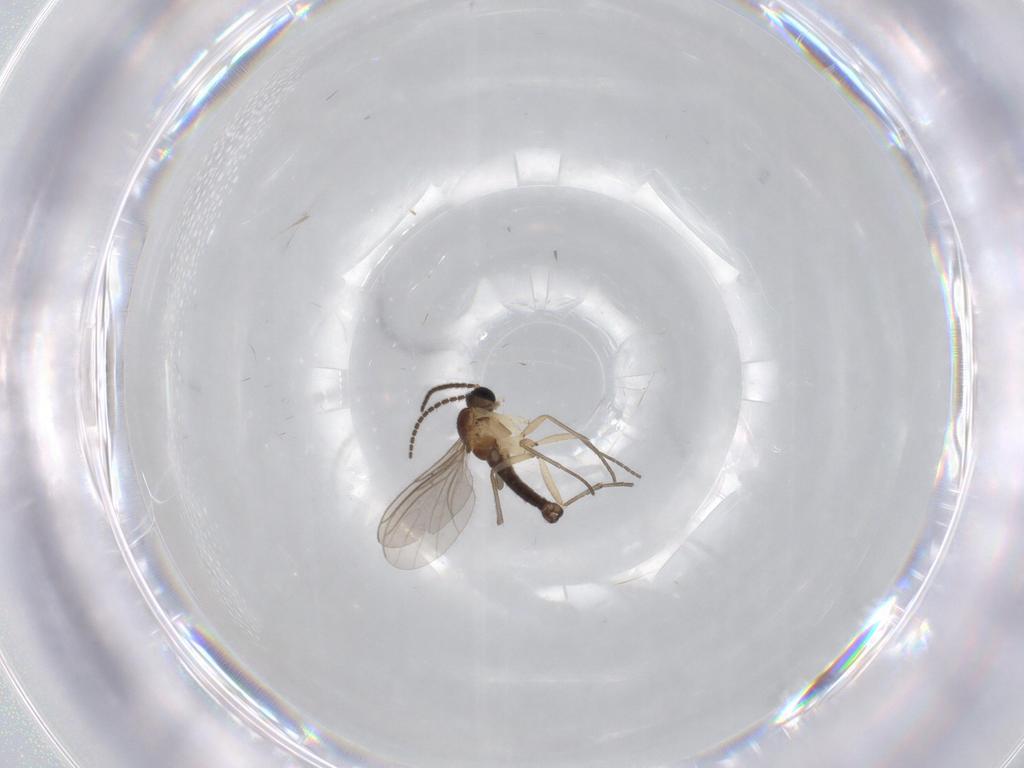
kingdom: Animalia
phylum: Arthropoda
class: Insecta
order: Diptera
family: Sciaridae
